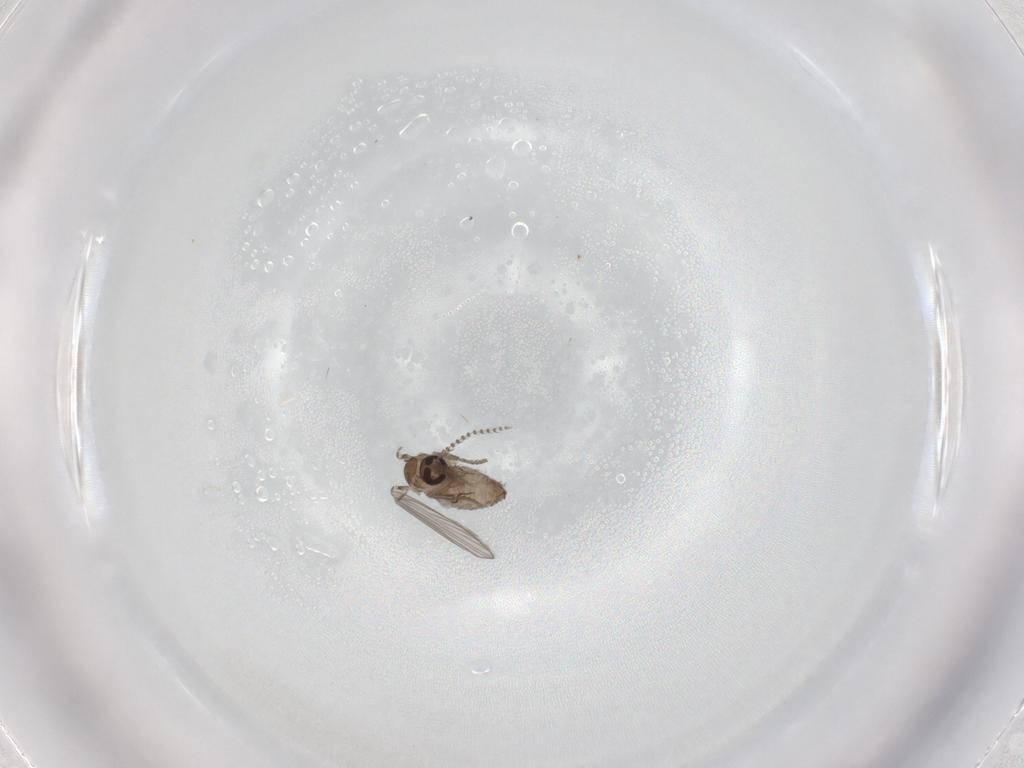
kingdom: Animalia
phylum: Arthropoda
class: Insecta
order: Diptera
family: Psychodidae
